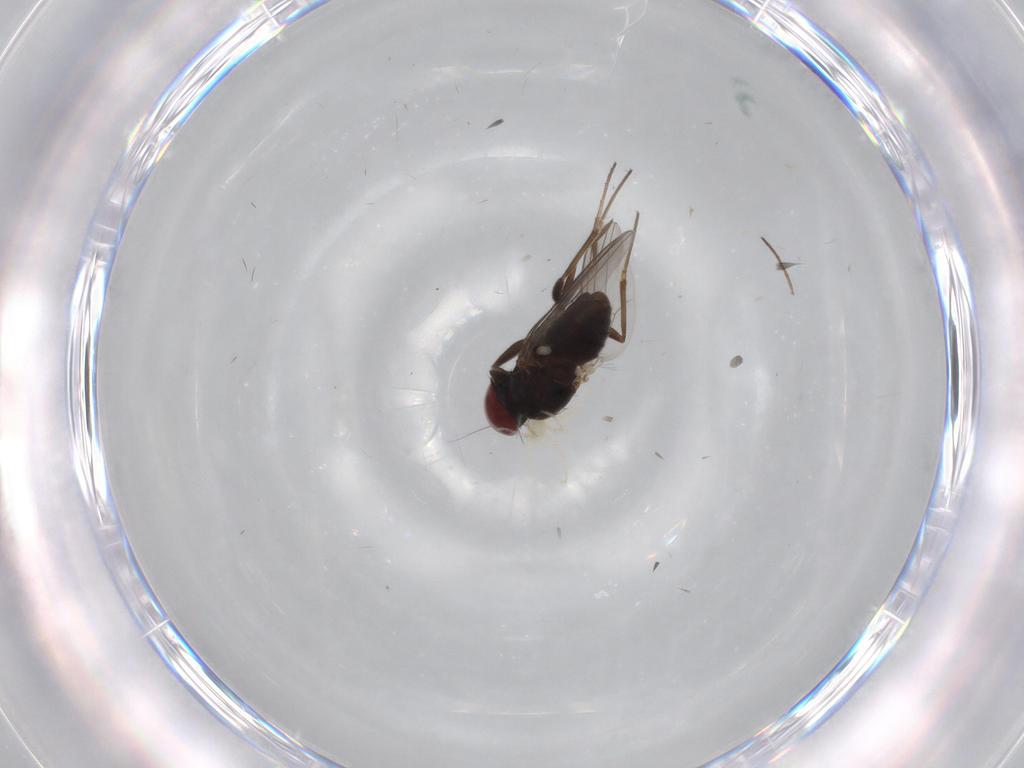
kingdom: Animalia
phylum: Arthropoda
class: Insecta
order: Diptera
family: Dolichopodidae
